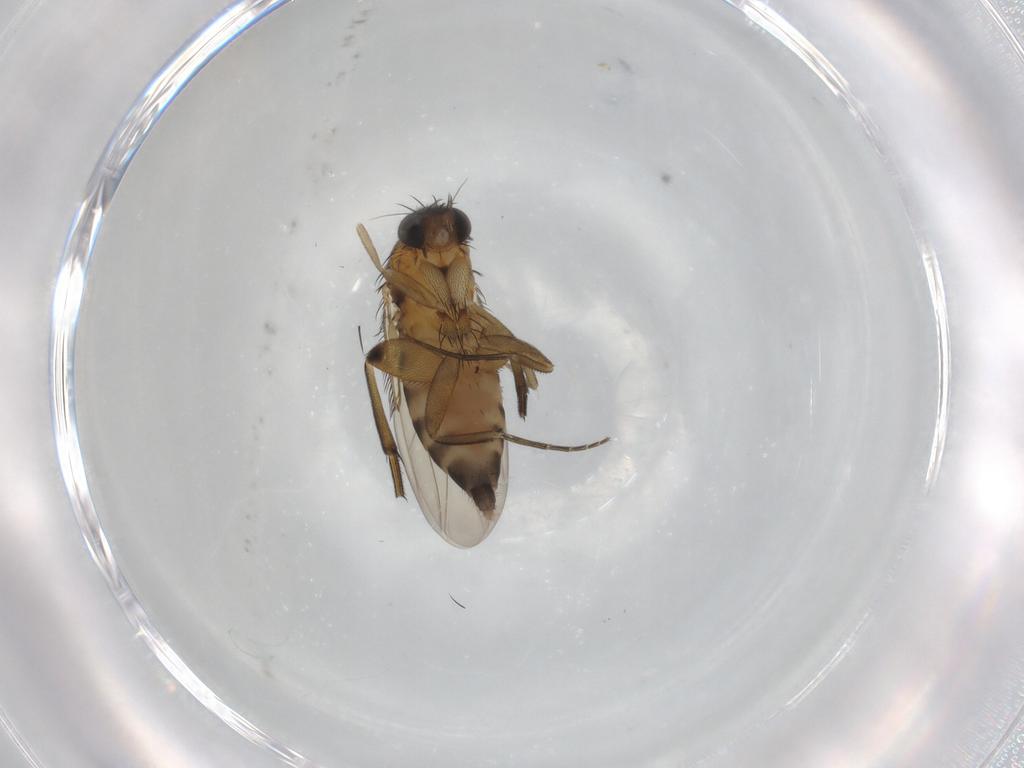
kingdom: Animalia
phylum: Arthropoda
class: Insecta
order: Diptera
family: Phoridae
